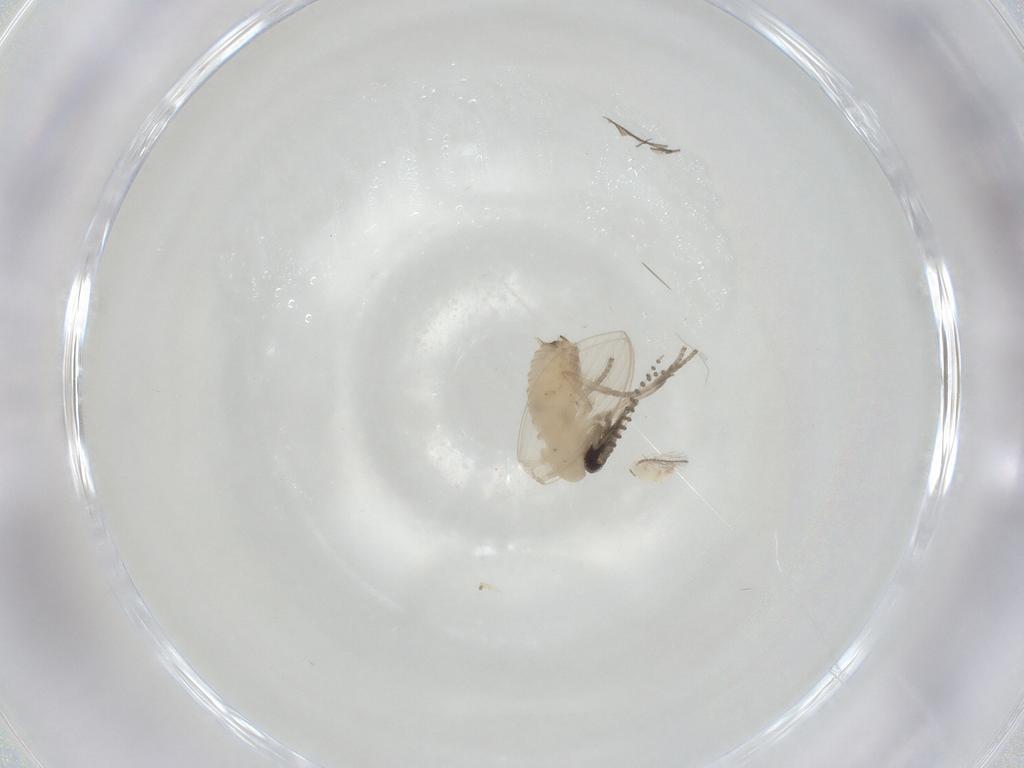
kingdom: Animalia
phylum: Arthropoda
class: Insecta
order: Diptera
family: Psychodidae
